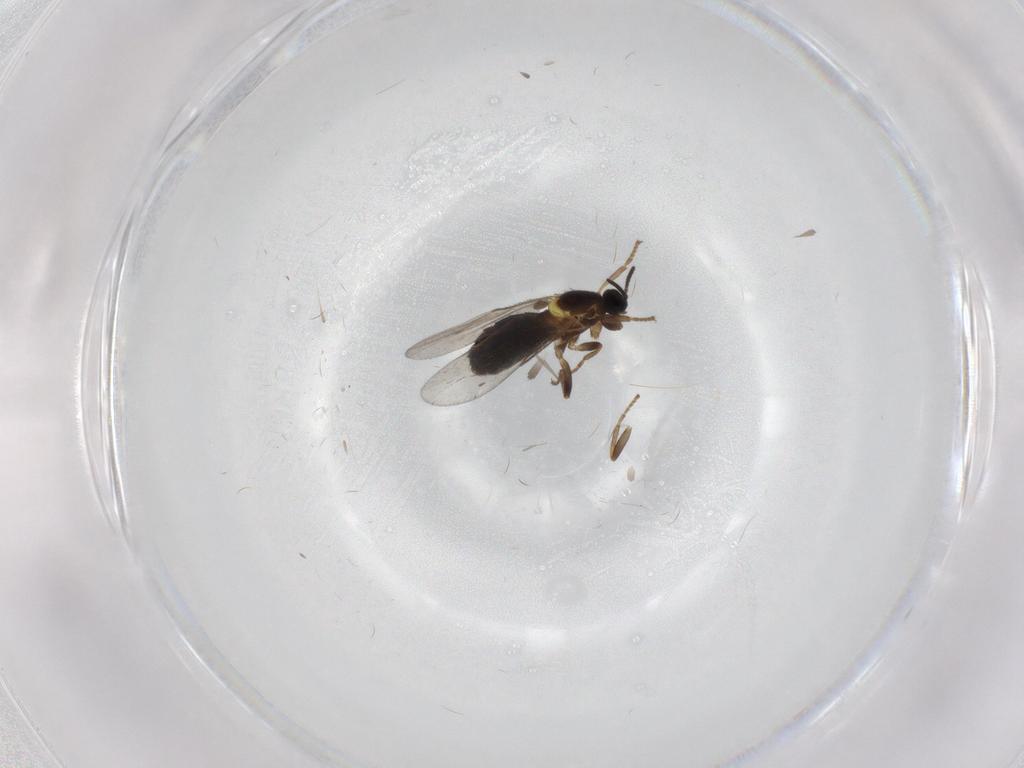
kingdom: Animalia
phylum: Arthropoda
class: Insecta
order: Diptera
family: Scatopsidae
